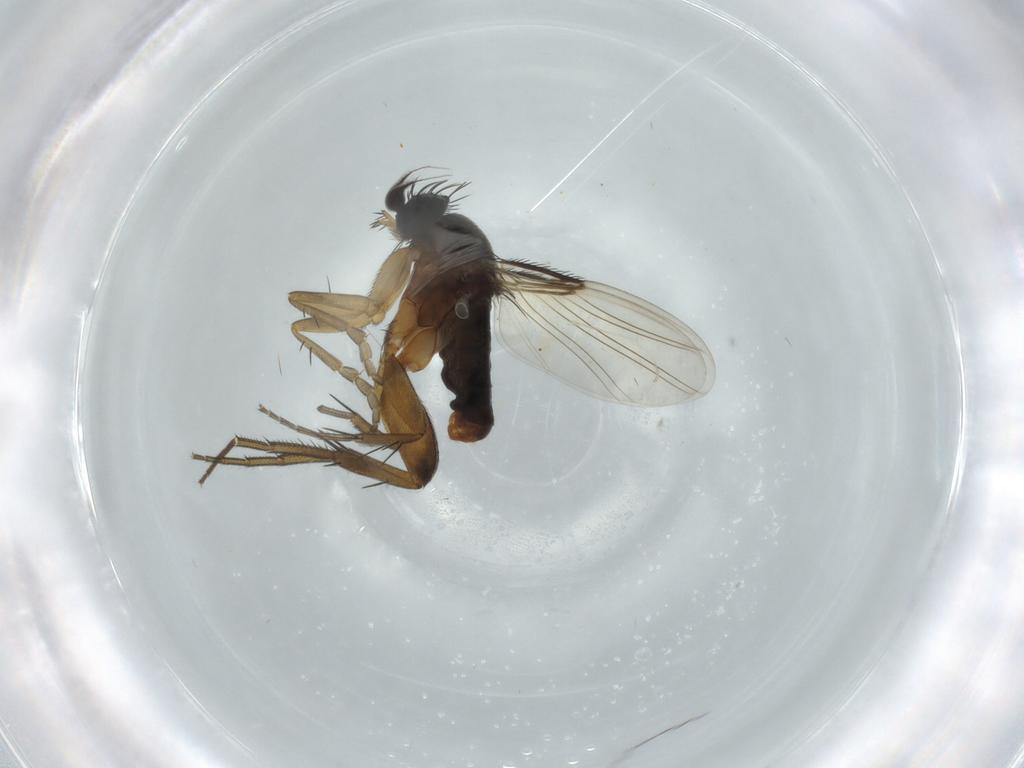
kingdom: Animalia
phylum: Arthropoda
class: Insecta
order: Diptera
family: Phoridae
